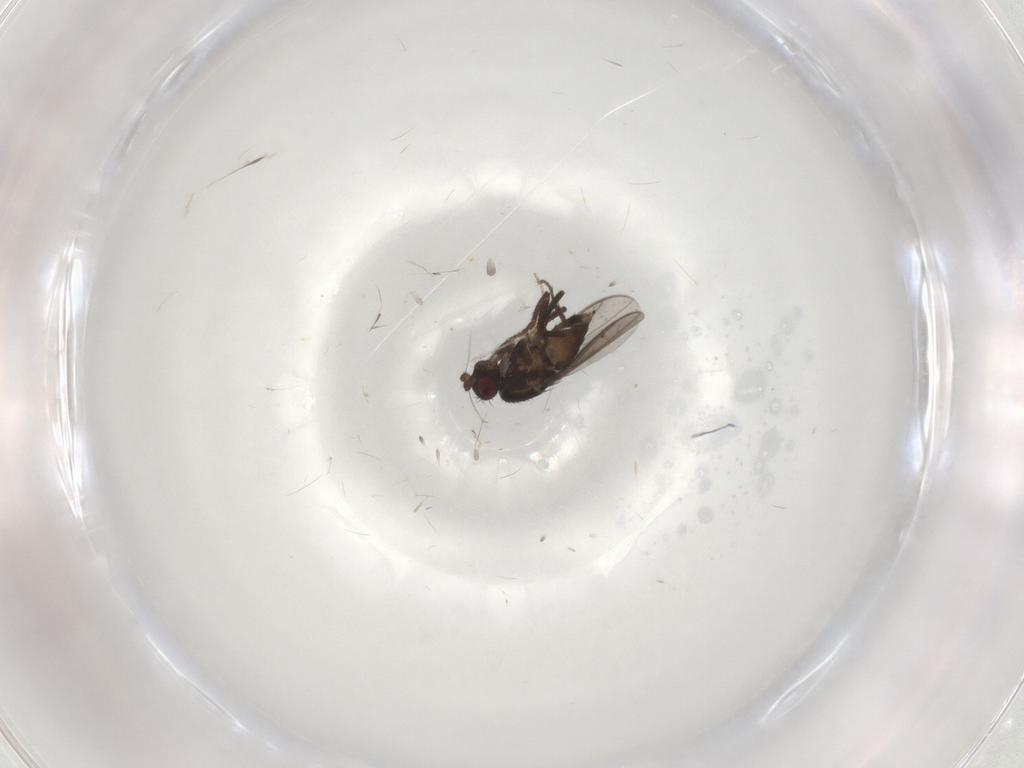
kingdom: Animalia
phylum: Arthropoda
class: Insecta
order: Diptera
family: Sphaeroceridae
